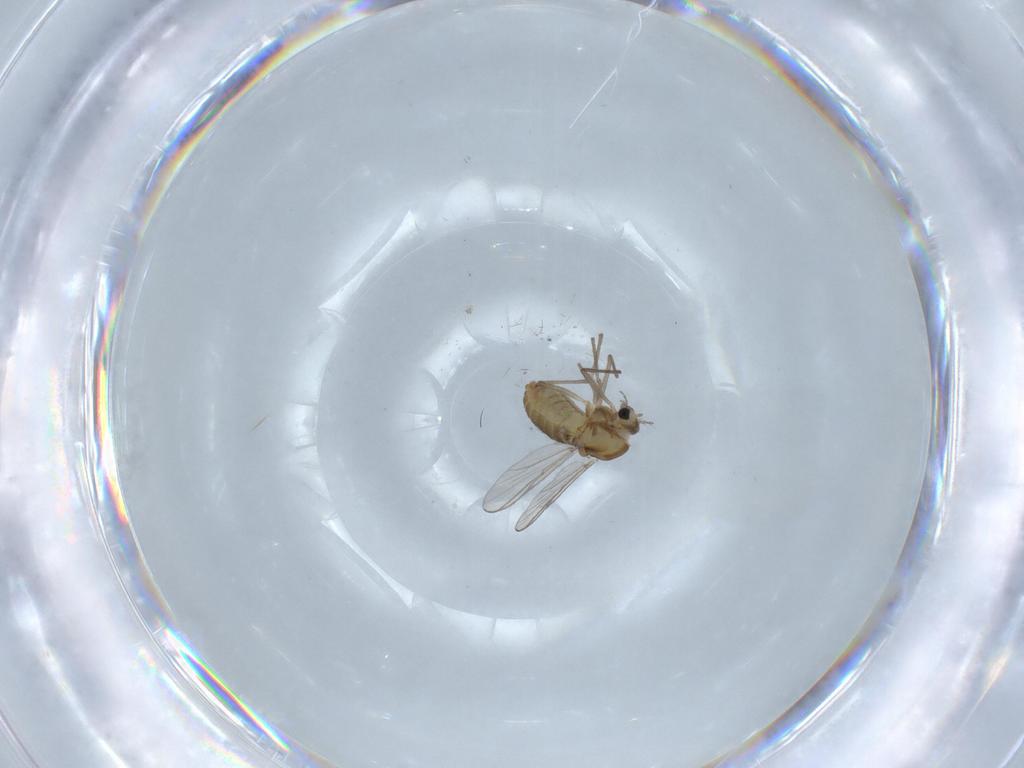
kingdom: Animalia
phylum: Arthropoda
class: Insecta
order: Diptera
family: Chironomidae
